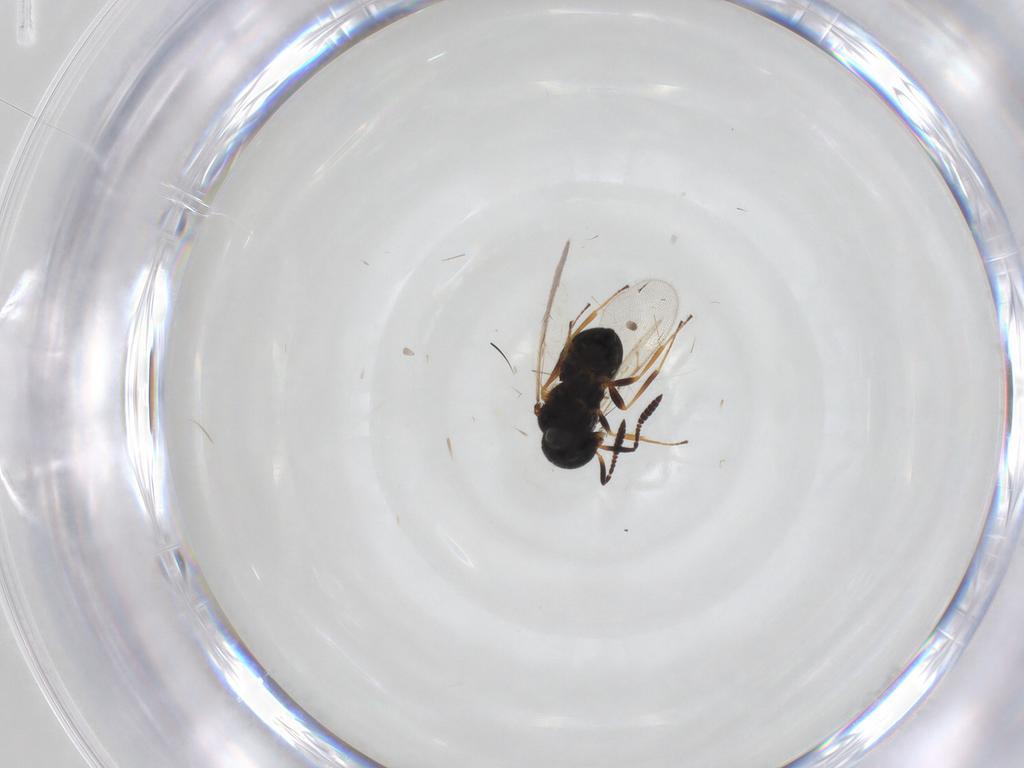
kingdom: Animalia
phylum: Arthropoda
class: Insecta
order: Hymenoptera
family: Scelionidae
